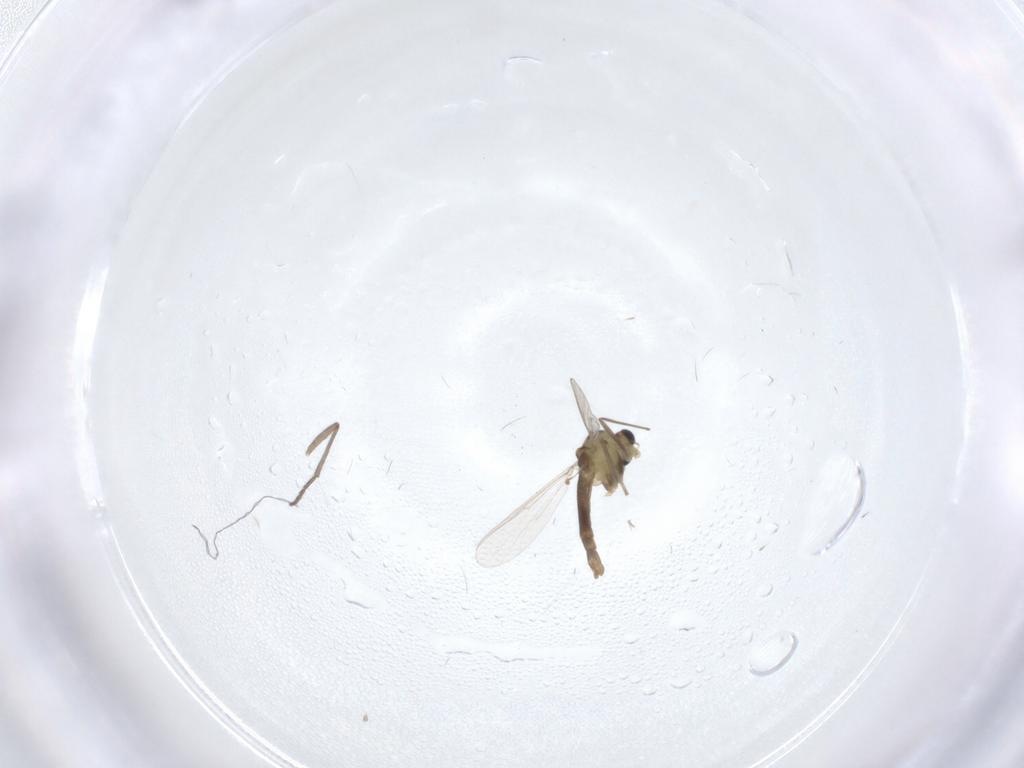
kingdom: Animalia
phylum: Arthropoda
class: Insecta
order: Diptera
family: Sciaridae
